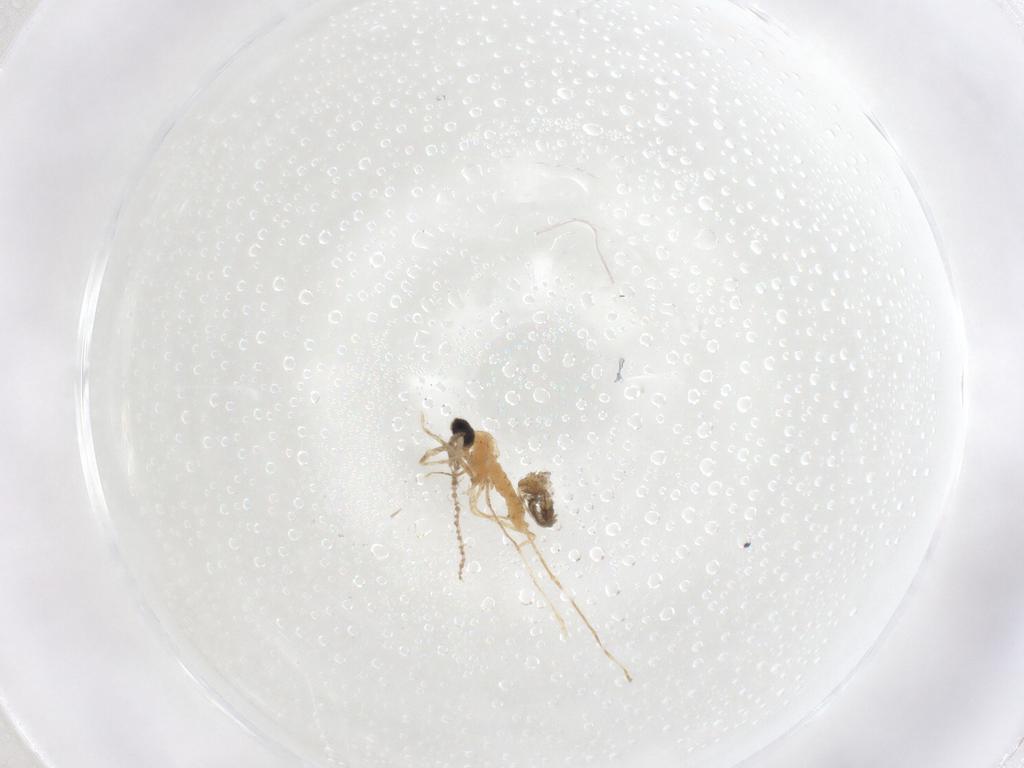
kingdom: Animalia
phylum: Arthropoda
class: Insecta
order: Diptera
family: Ceratopogonidae
